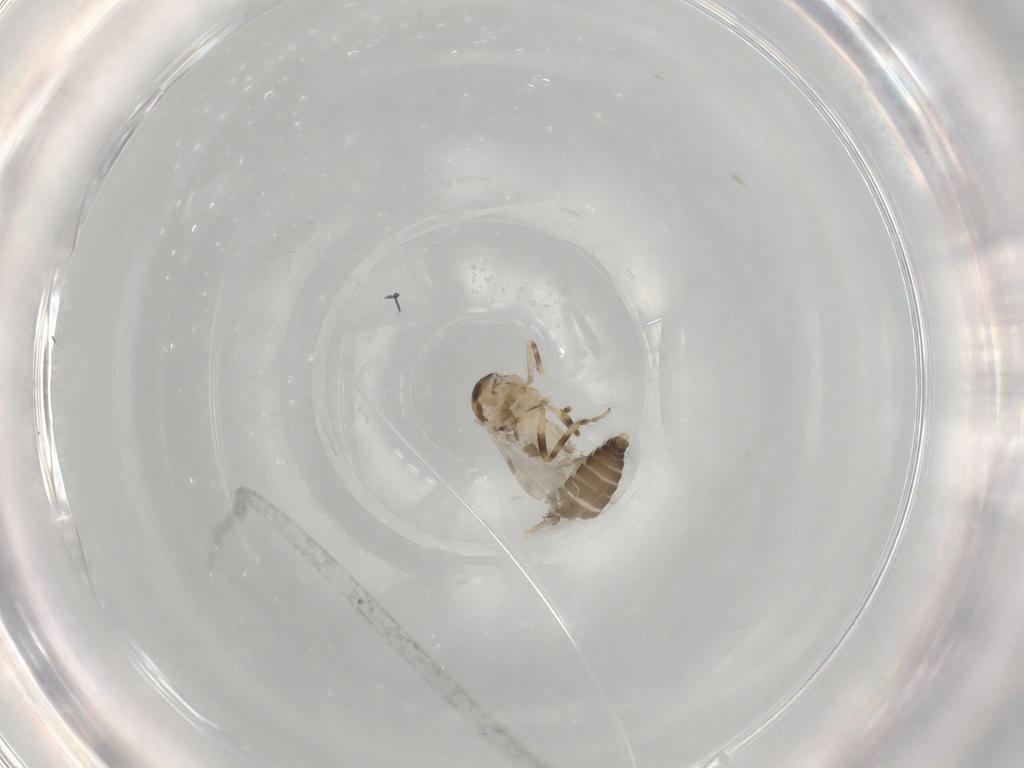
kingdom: Animalia
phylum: Arthropoda
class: Insecta
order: Diptera
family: Ceratopogonidae
